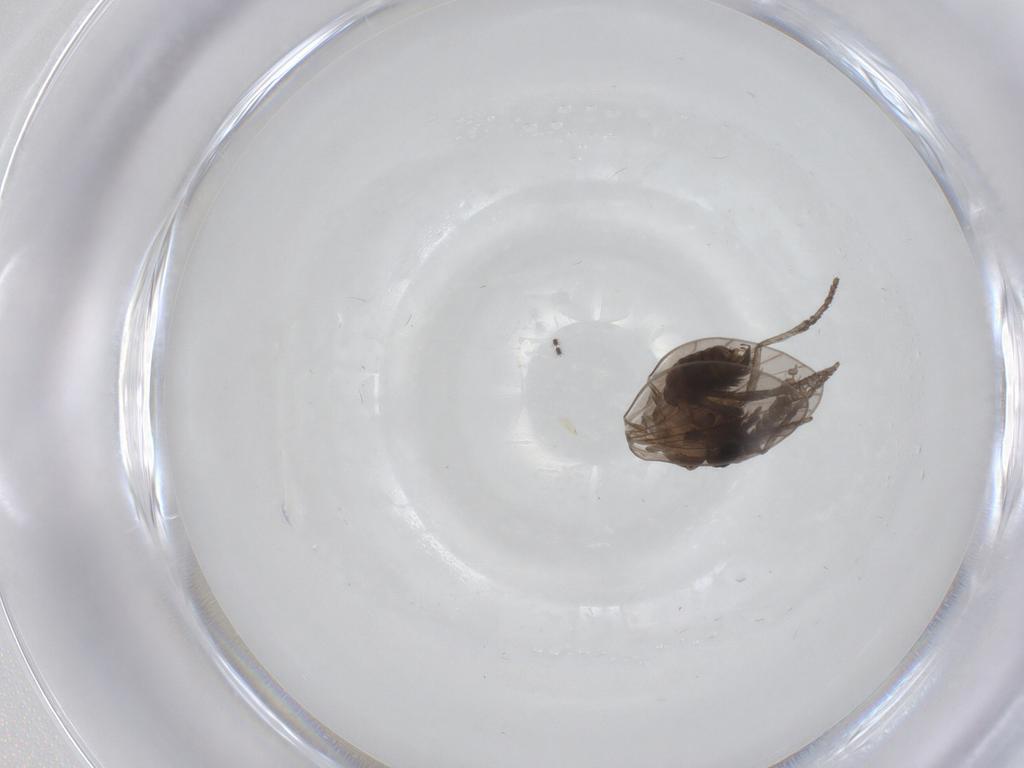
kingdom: Animalia
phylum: Arthropoda
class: Insecta
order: Diptera
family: Psychodidae
